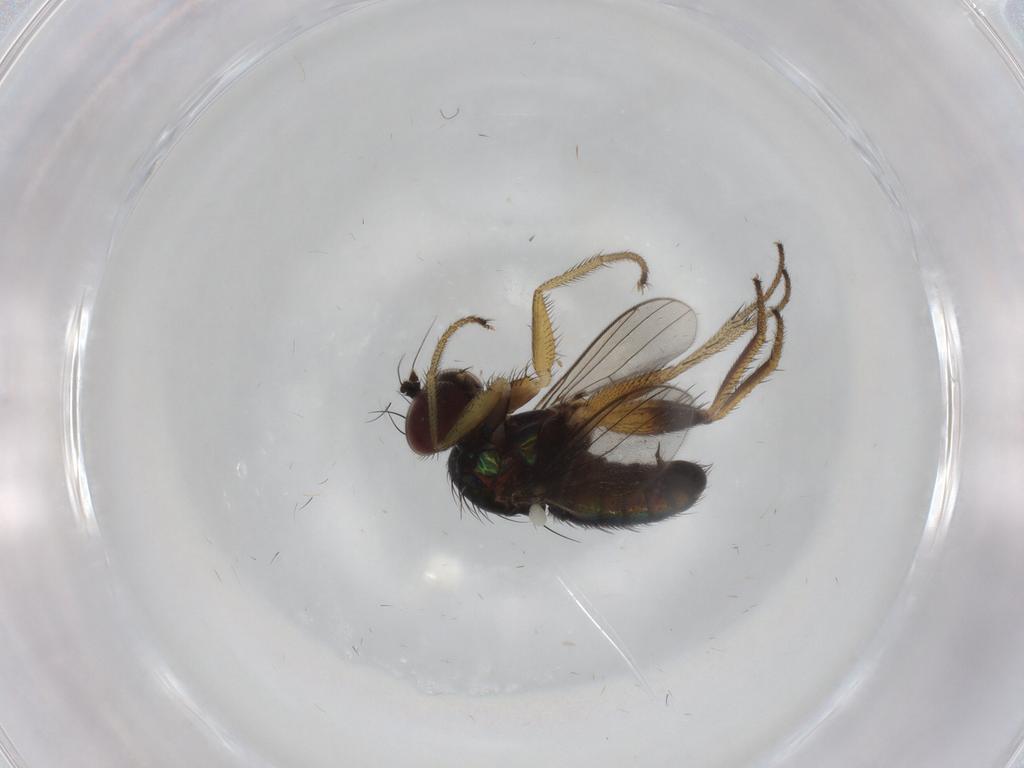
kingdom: Animalia
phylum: Arthropoda
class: Insecta
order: Diptera
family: Dolichopodidae
